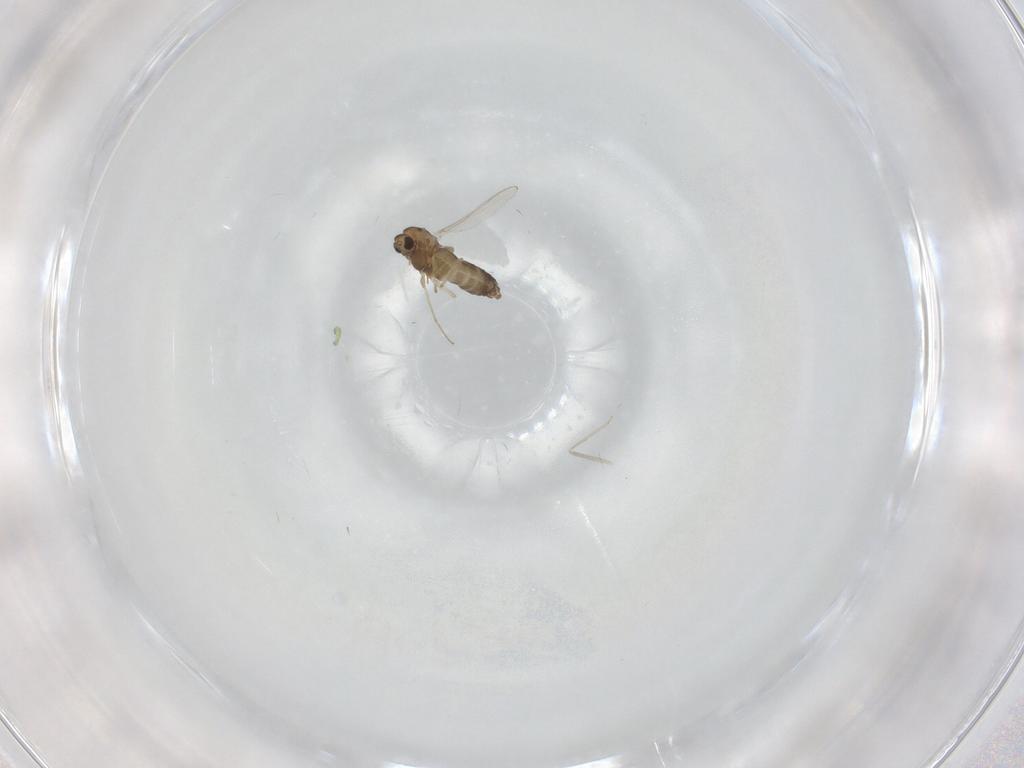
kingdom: Animalia
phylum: Arthropoda
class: Insecta
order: Diptera
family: Chironomidae
